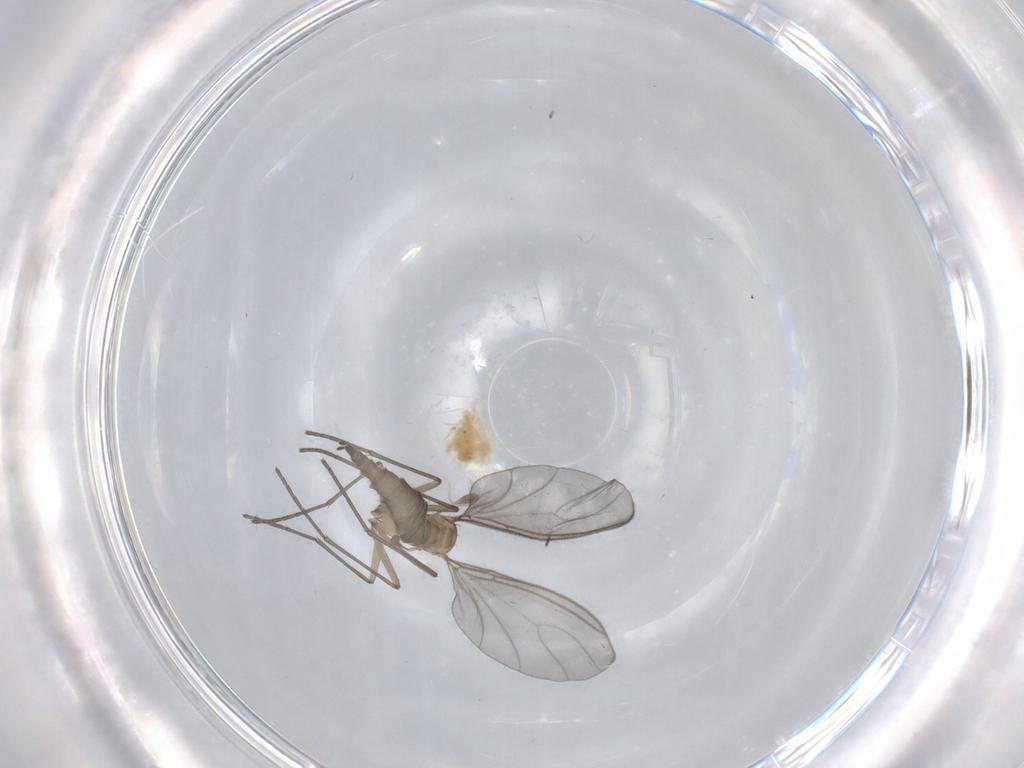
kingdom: Animalia
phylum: Arthropoda
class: Insecta
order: Diptera
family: Sciaridae
